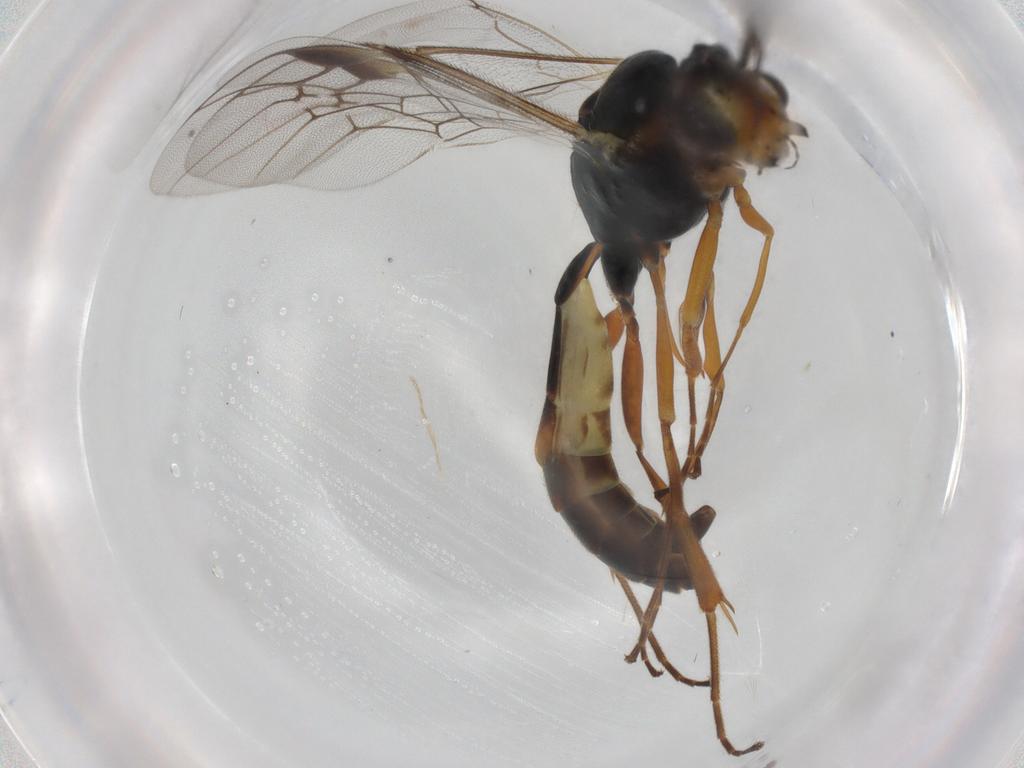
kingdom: Animalia
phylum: Arthropoda
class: Insecta
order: Hymenoptera
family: Ichneumonidae
